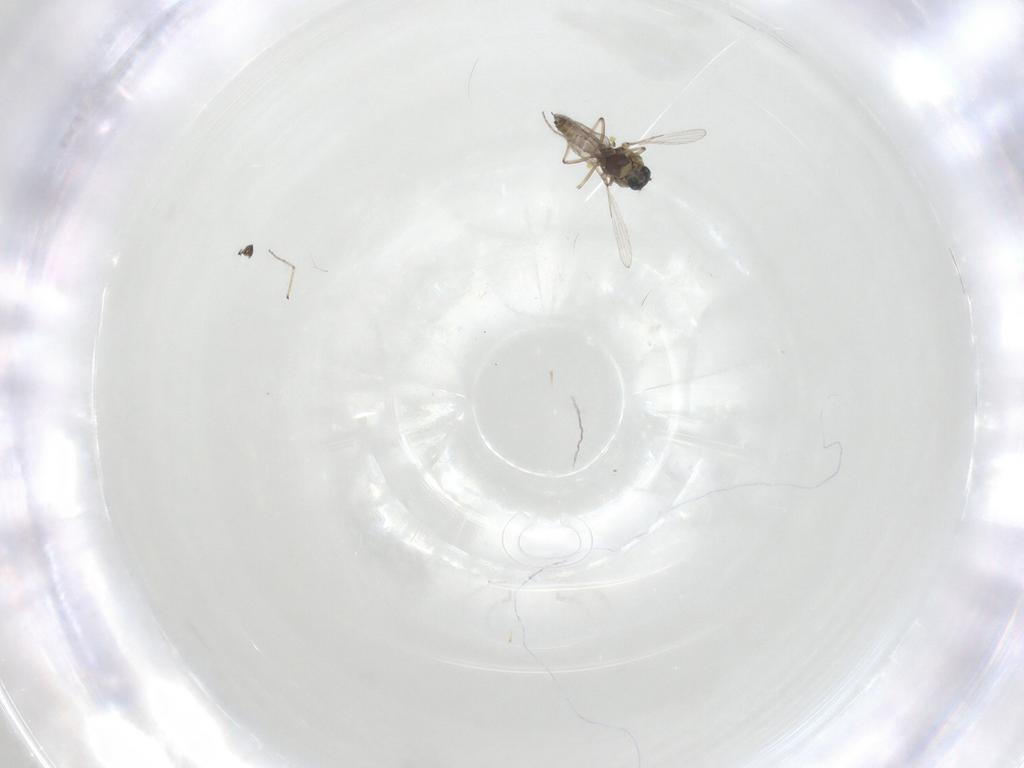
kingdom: Animalia
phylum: Arthropoda
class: Insecta
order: Diptera
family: Ceratopogonidae
